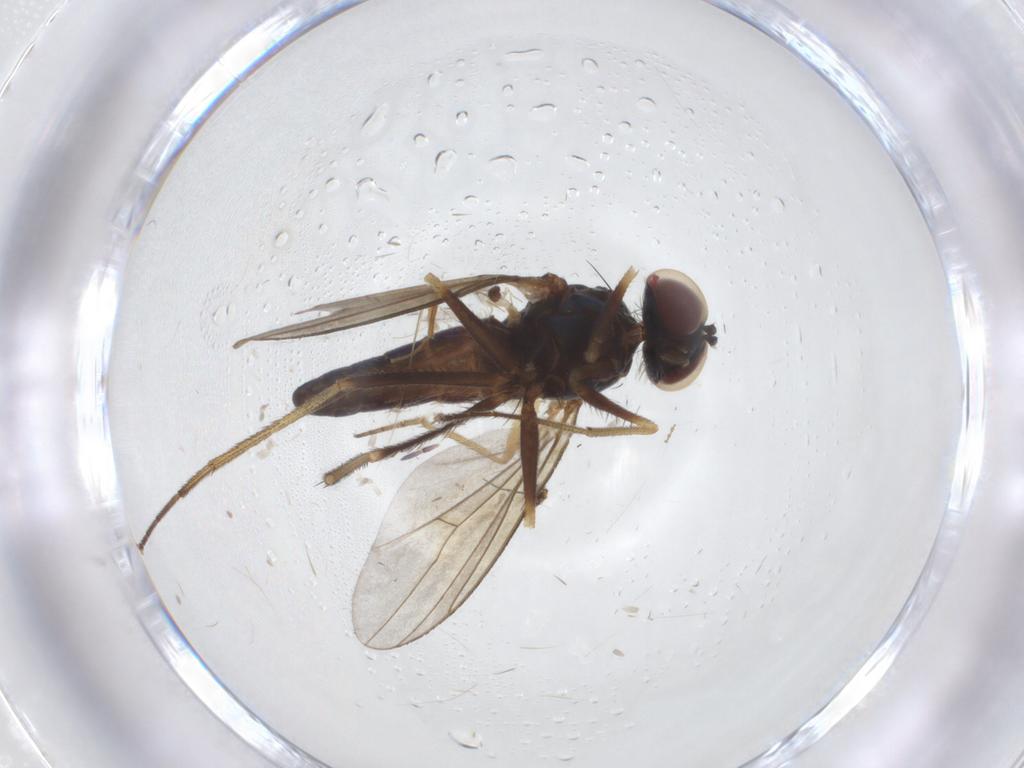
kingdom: Animalia
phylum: Arthropoda
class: Insecta
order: Diptera
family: Dolichopodidae
